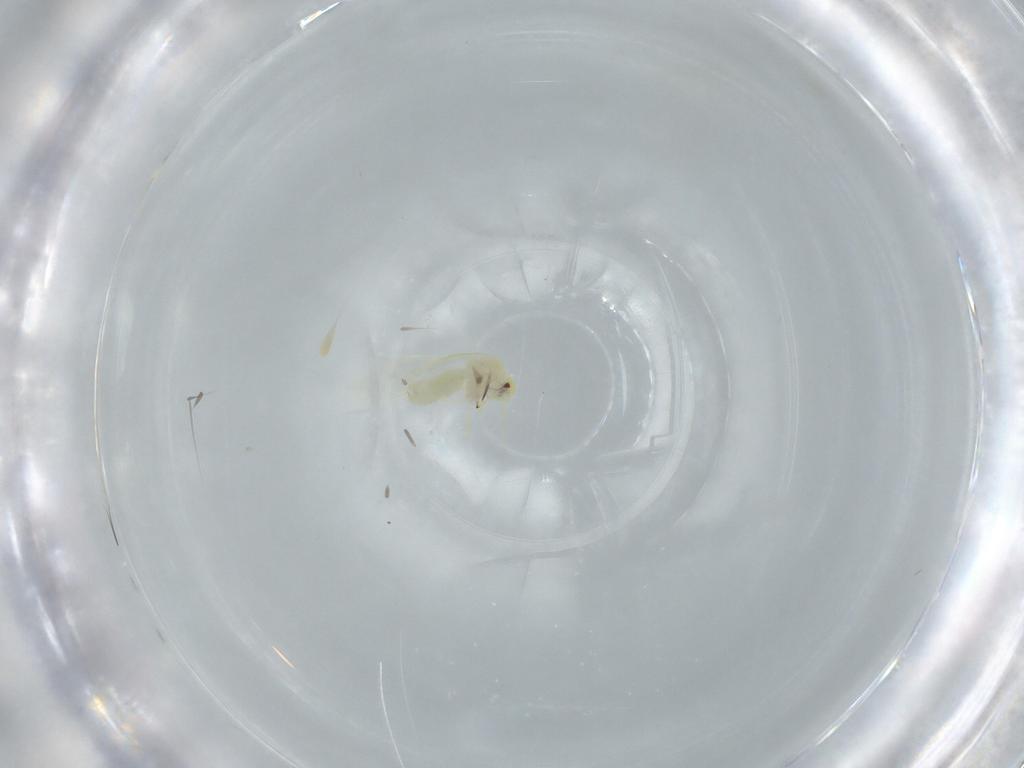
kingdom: Animalia
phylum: Arthropoda
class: Insecta
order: Hemiptera
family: Aleyrodidae
